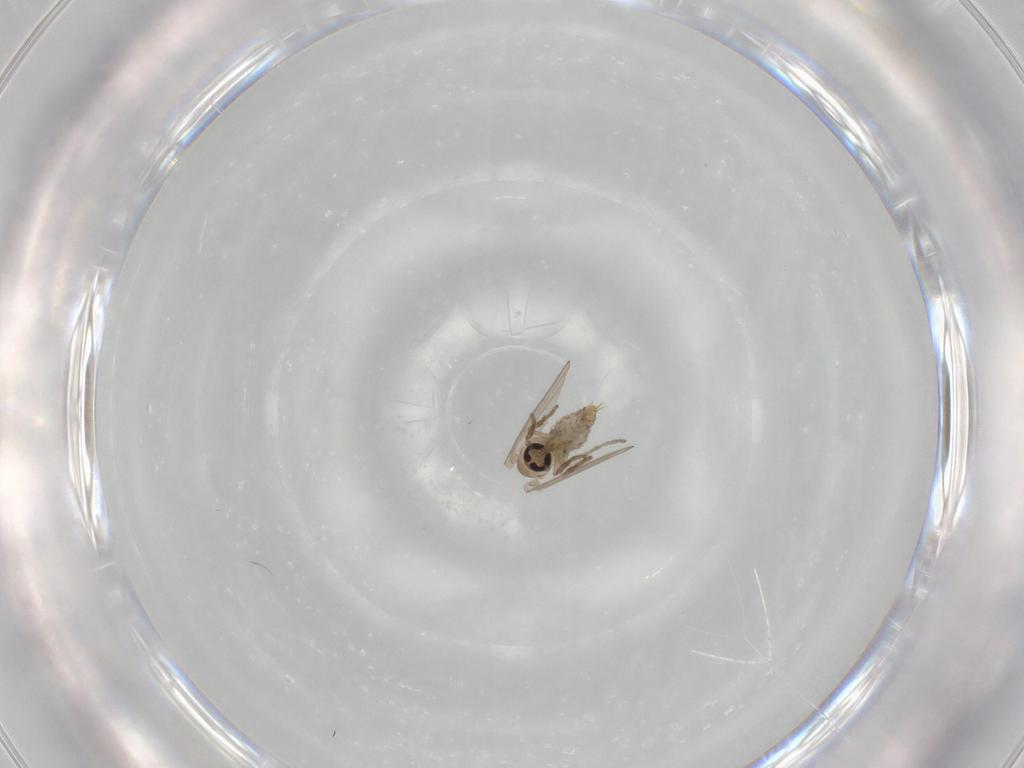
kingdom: Animalia
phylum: Arthropoda
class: Insecta
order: Diptera
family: Psychodidae
